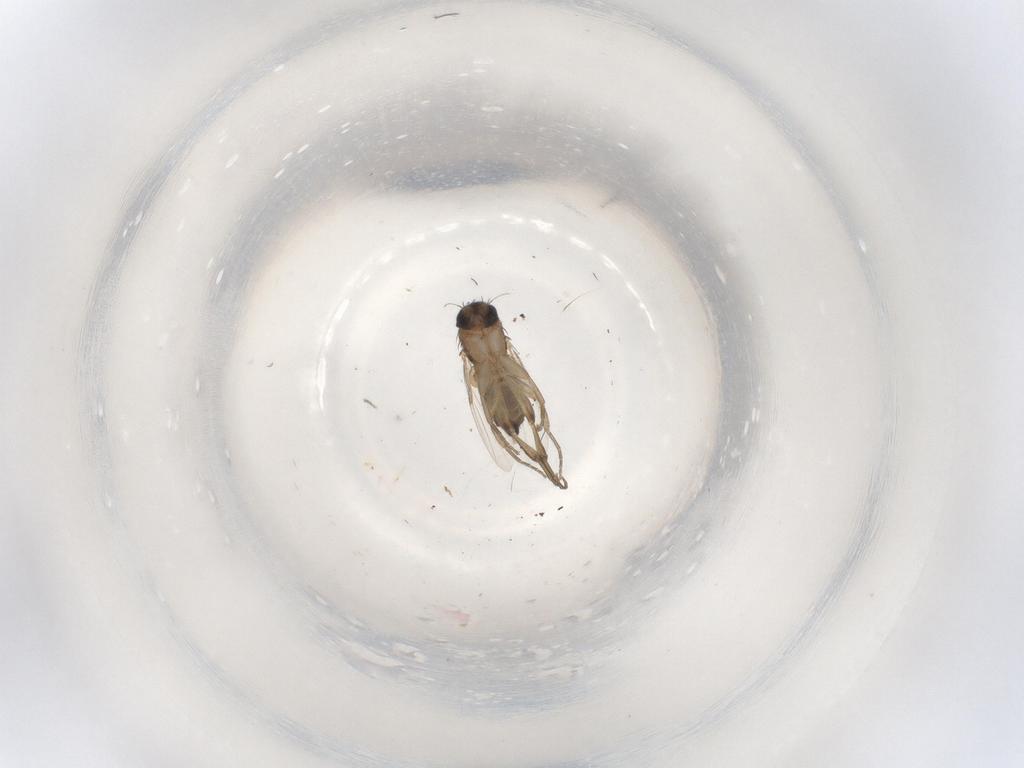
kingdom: Animalia
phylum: Arthropoda
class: Insecta
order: Diptera
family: Phoridae
